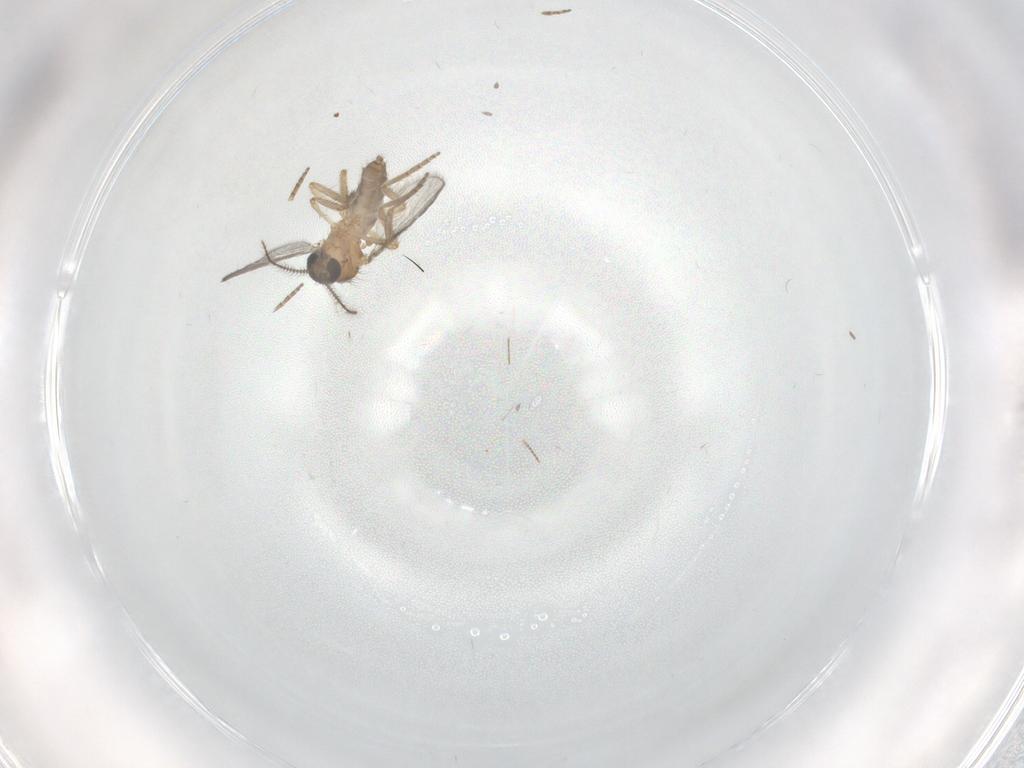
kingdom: Animalia
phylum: Arthropoda
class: Insecta
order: Diptera
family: Ceratopogonidae
